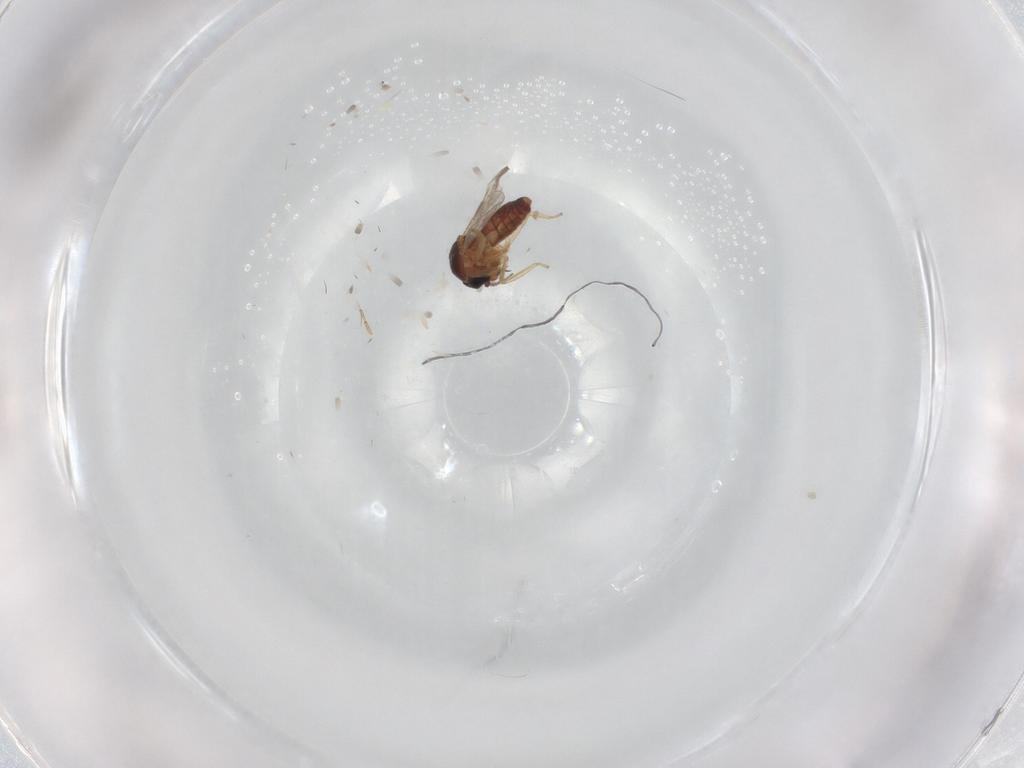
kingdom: Animalia
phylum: Arthropoda
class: Insecta
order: Diptera
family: Ceratopogonidae
